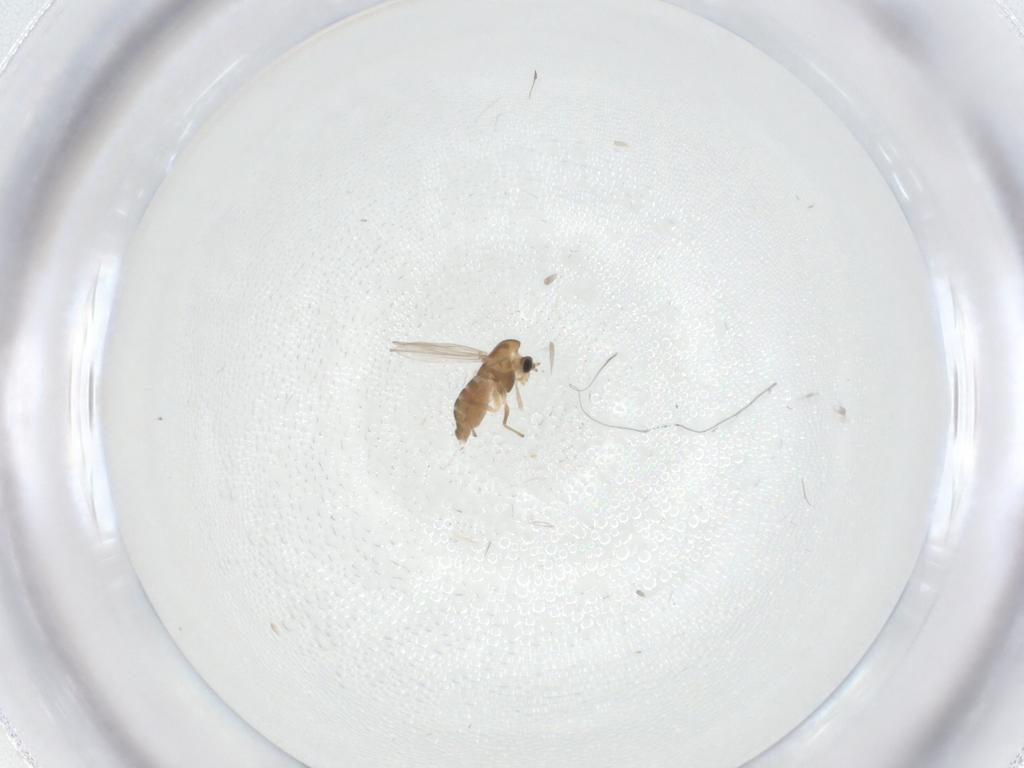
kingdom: Animalia
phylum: Arthropoda
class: Insecta
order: Diptera
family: Chironomidae
